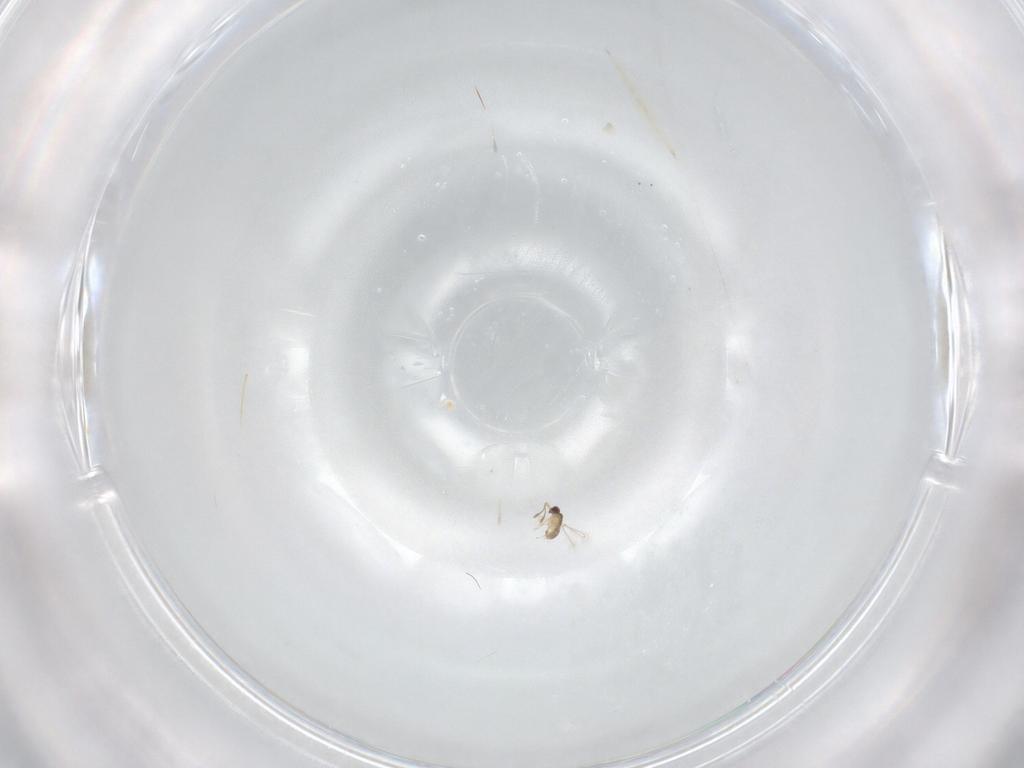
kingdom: Animalia
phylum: Arthropoda
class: Insecta
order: Hymenoptera
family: Mymaridae
